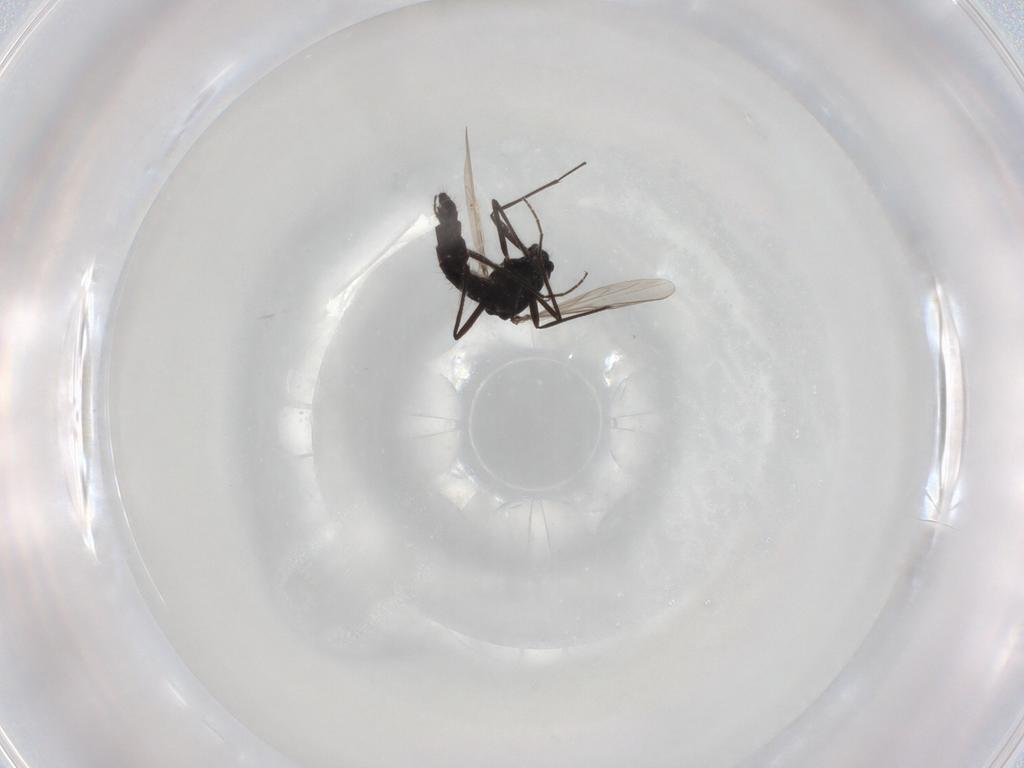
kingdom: Animalia
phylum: Arthropoda
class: Insecta
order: Diptera
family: Chironomidae
